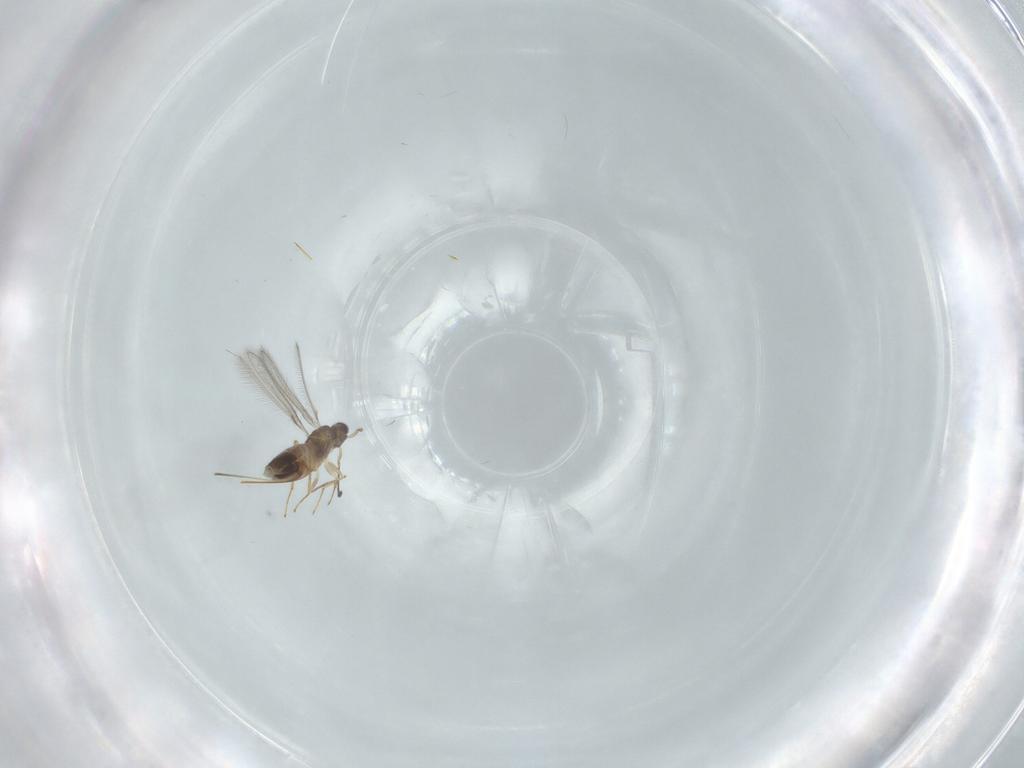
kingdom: Animalia
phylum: Arthropoda
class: Insecta
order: Hymenoptera
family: Mymaridae
